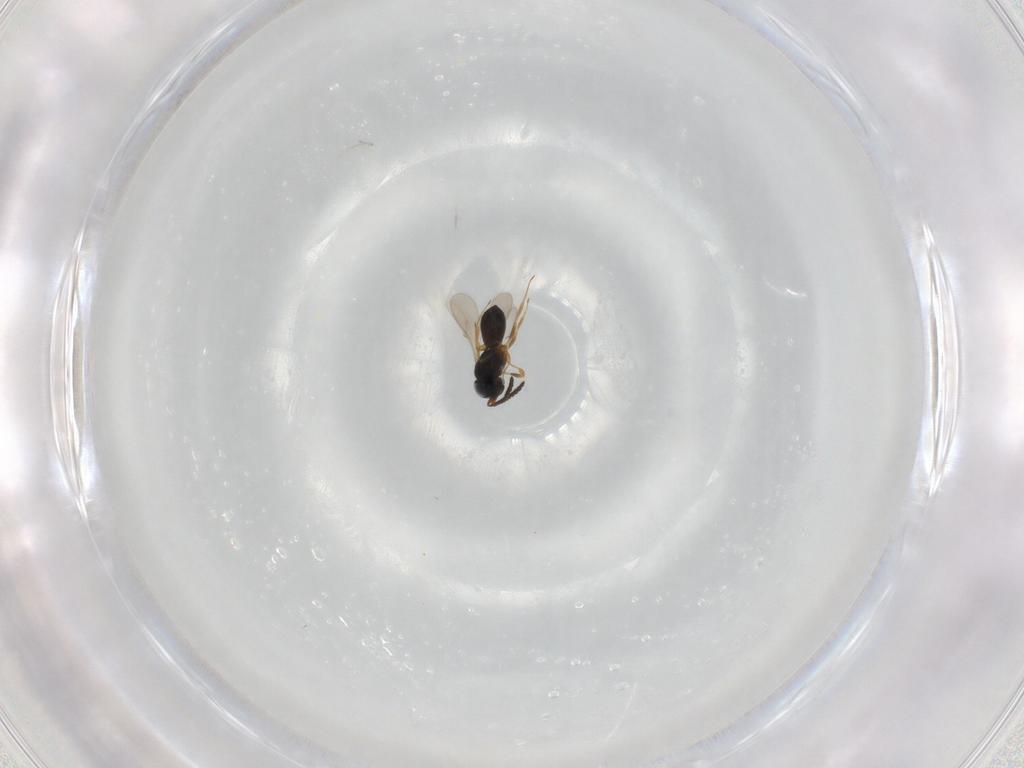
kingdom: Animalia
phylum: Arthropoda
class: Insecta
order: Hymenoptera
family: Scelionidae
